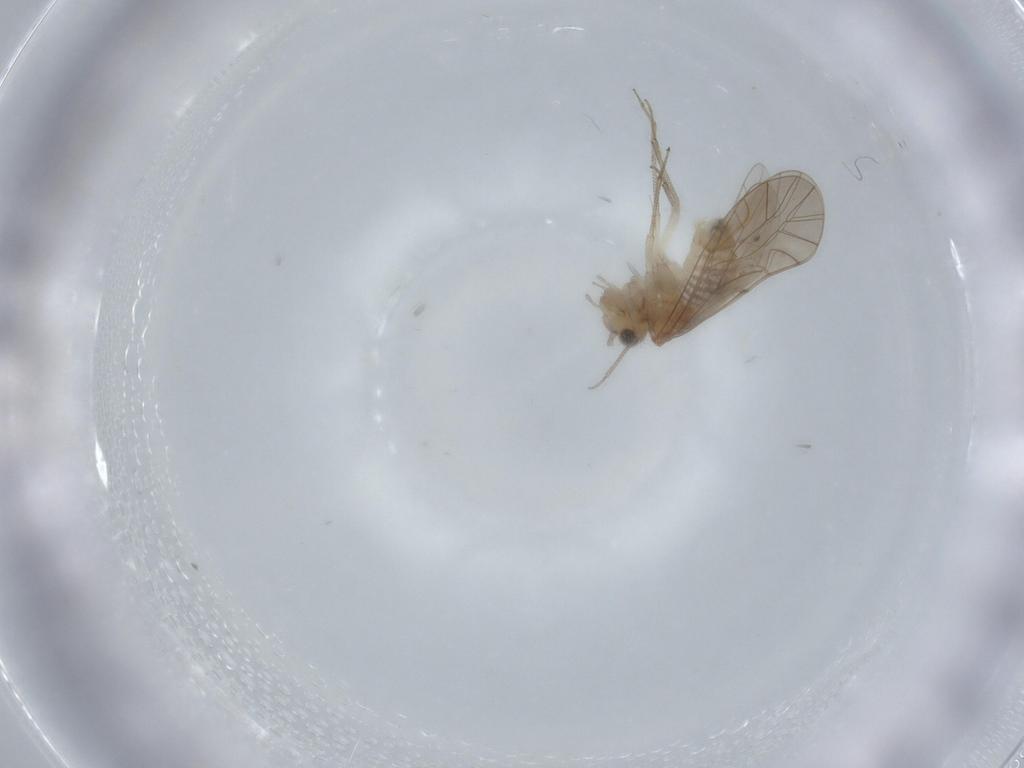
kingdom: Animalia
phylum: Arthropoda
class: Insecta
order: Psocodea
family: Lachesillidae
